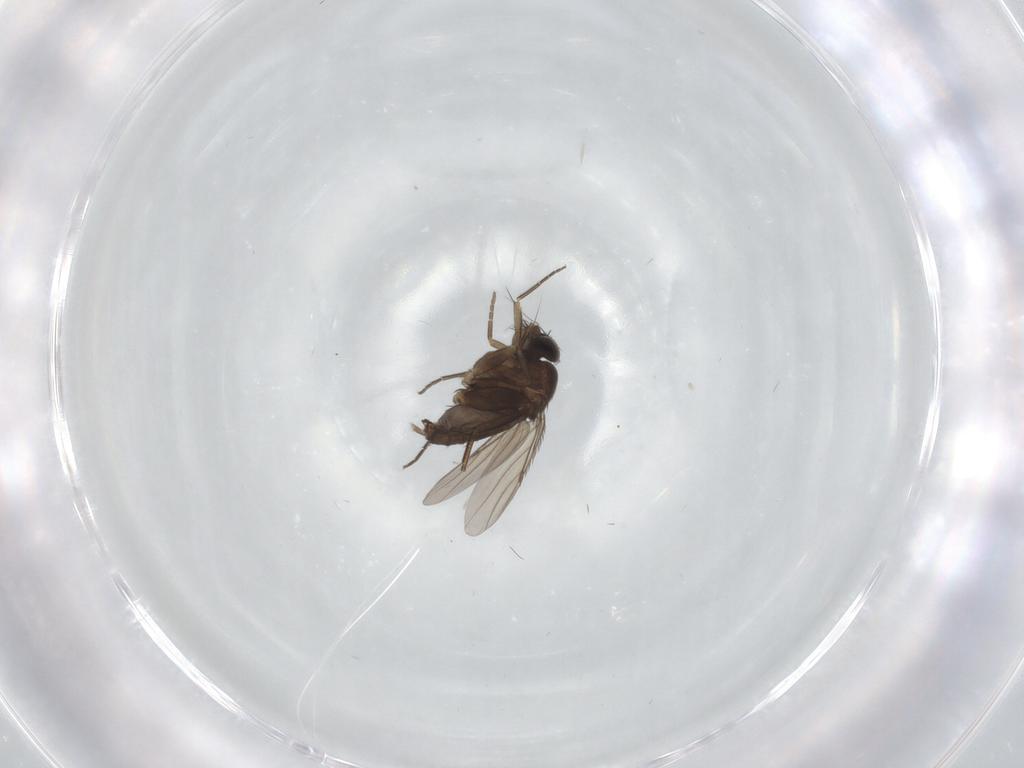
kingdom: Animalia
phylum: Arthropoda
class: Insecta
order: Diptera
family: Phoridae
